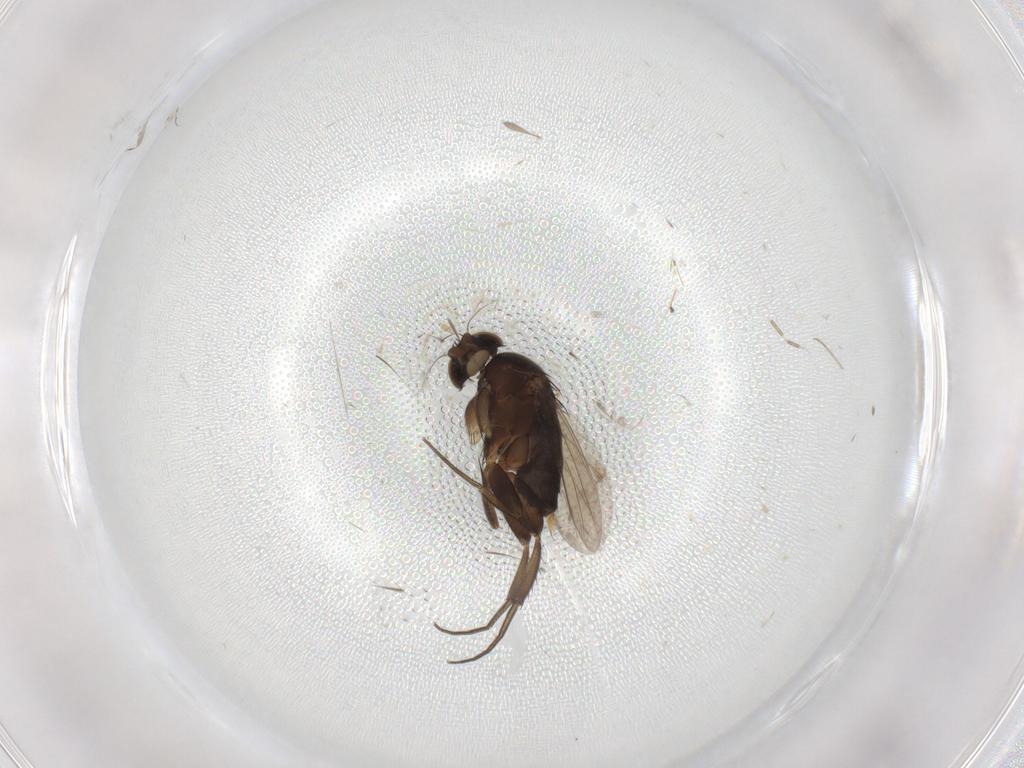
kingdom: Animalia
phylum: Arthropoda
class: Insecta
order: Diptera
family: Phoridae
